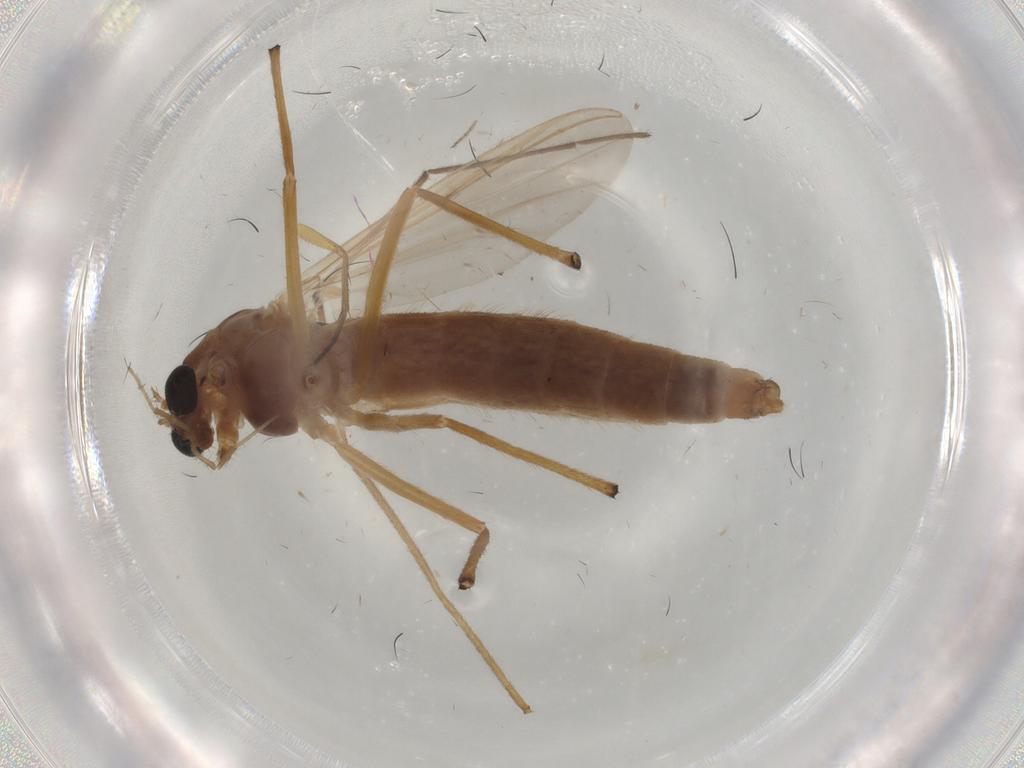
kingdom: Animalia
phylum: Arthropoda
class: Insecta
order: Diptera
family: Chironomidae
